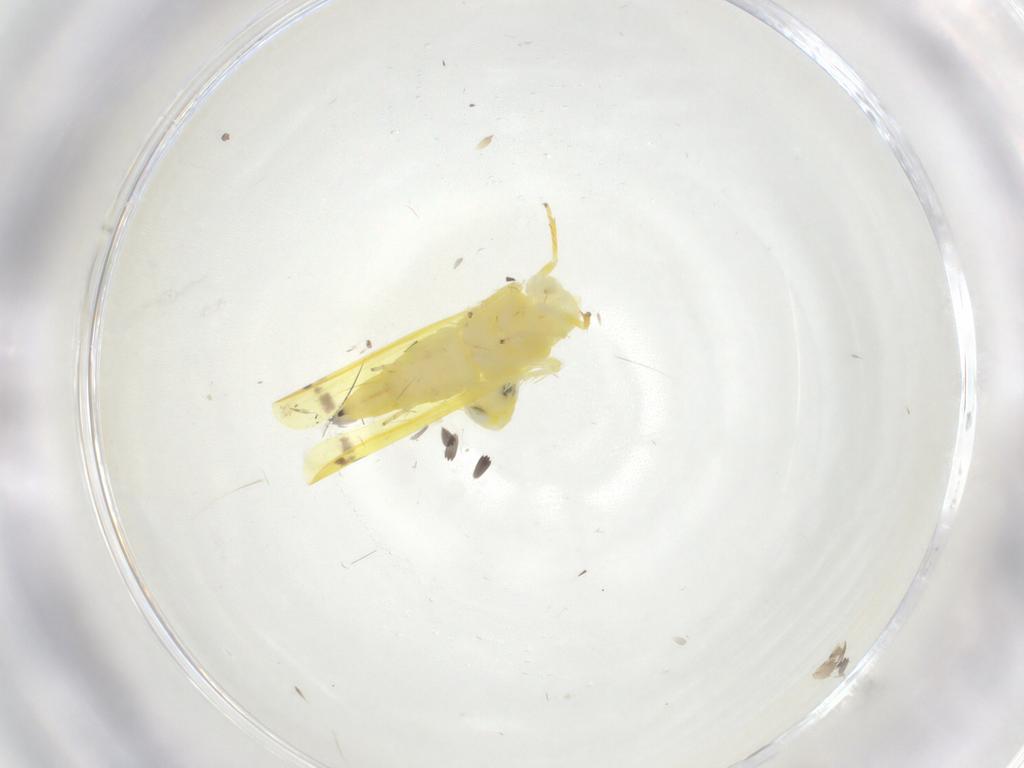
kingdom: Animalia
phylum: Arthropoda
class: Insecta
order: Hemiptera
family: Cicadellidae
